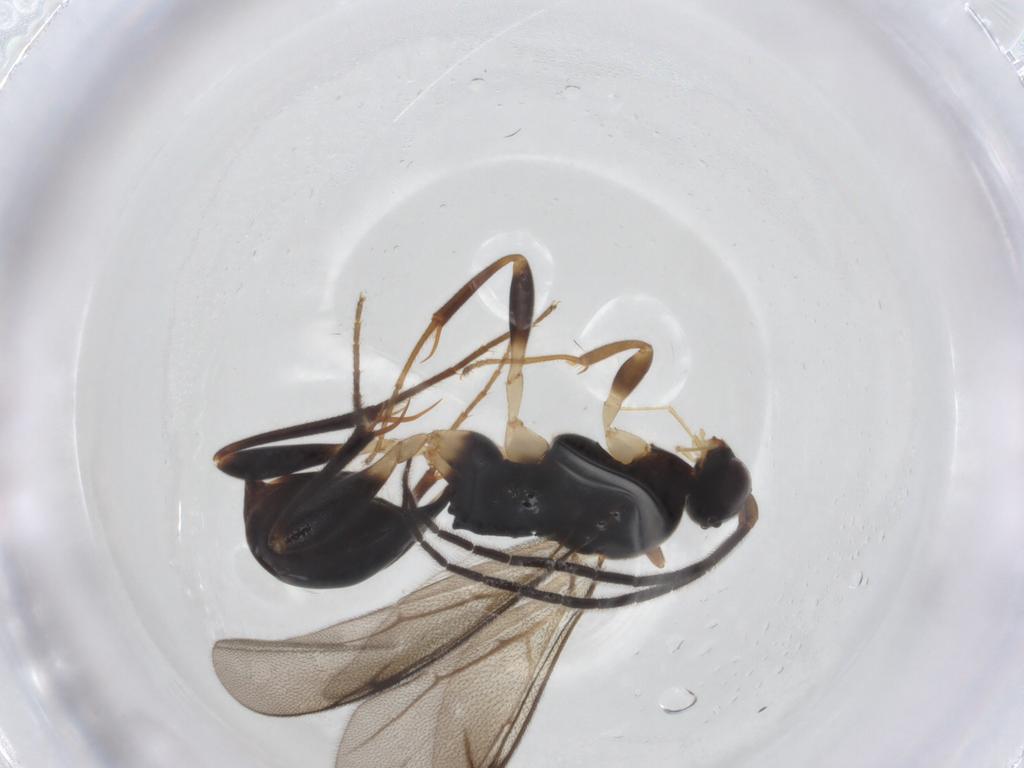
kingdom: Animalia
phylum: Arthropoda
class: Insecta
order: Hymenoptera
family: Proctotrupidae
